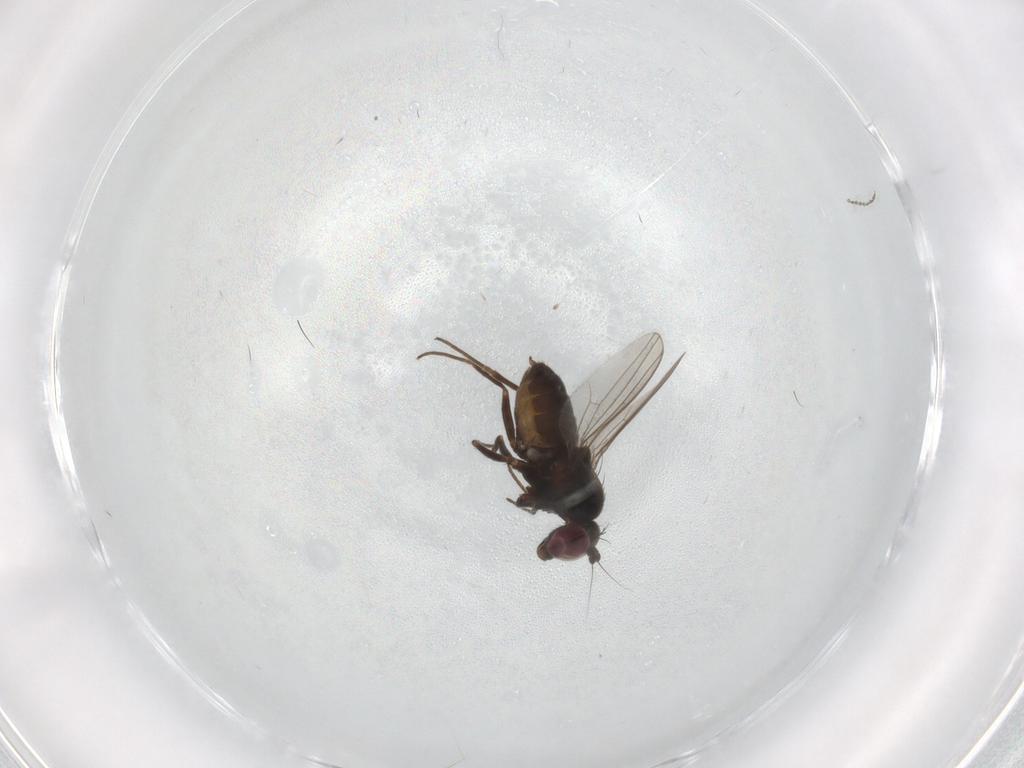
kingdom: Animalia
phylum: Arthropoda
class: Insecta
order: Diptera
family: Dolichopodidae
